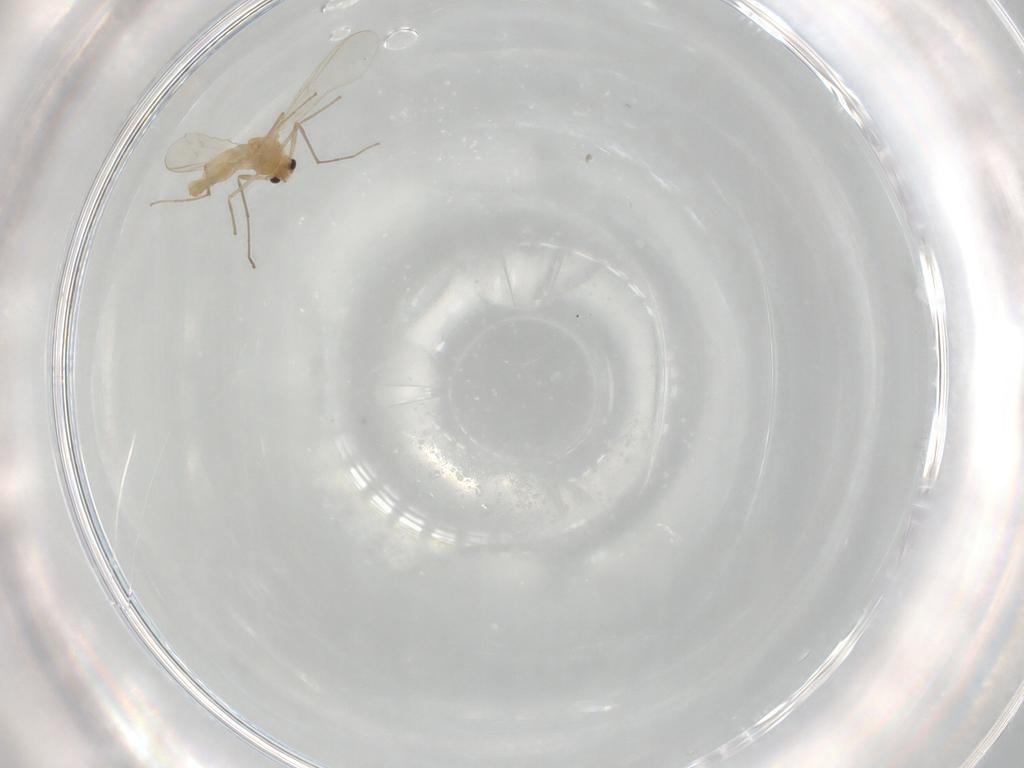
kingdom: Animalia
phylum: Arthropoda
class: Insecta
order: Diptera
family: Chironomidae
